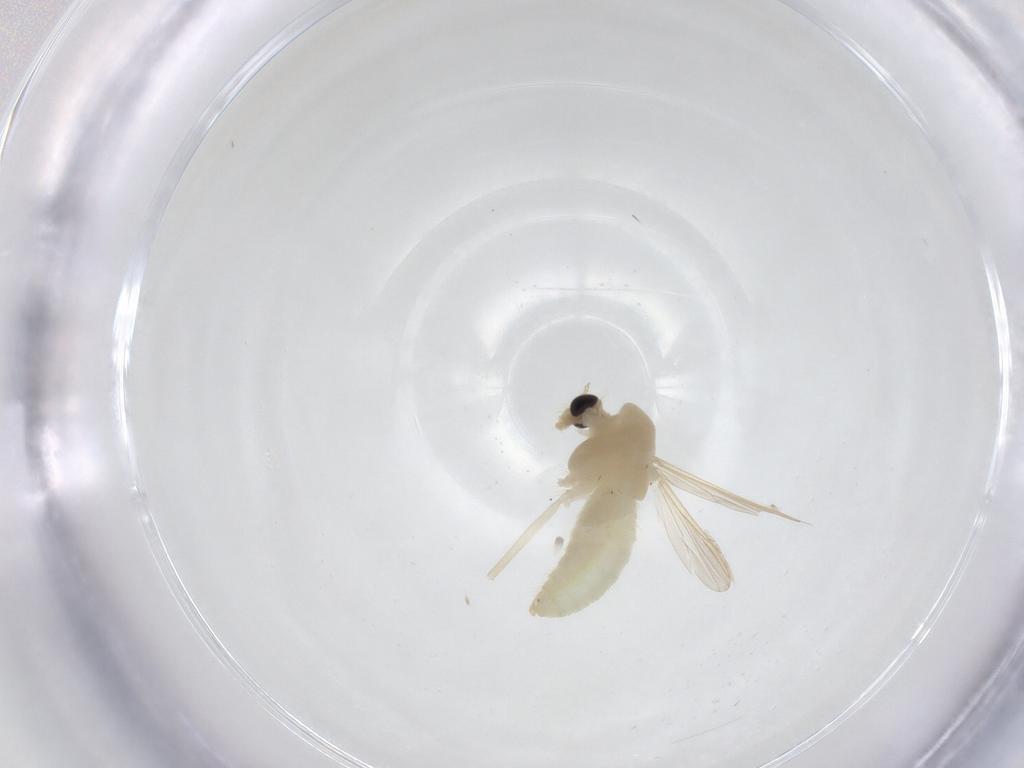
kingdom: Animalia
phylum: Arthropoda
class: Insecta
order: Diptera
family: Chironomidae
